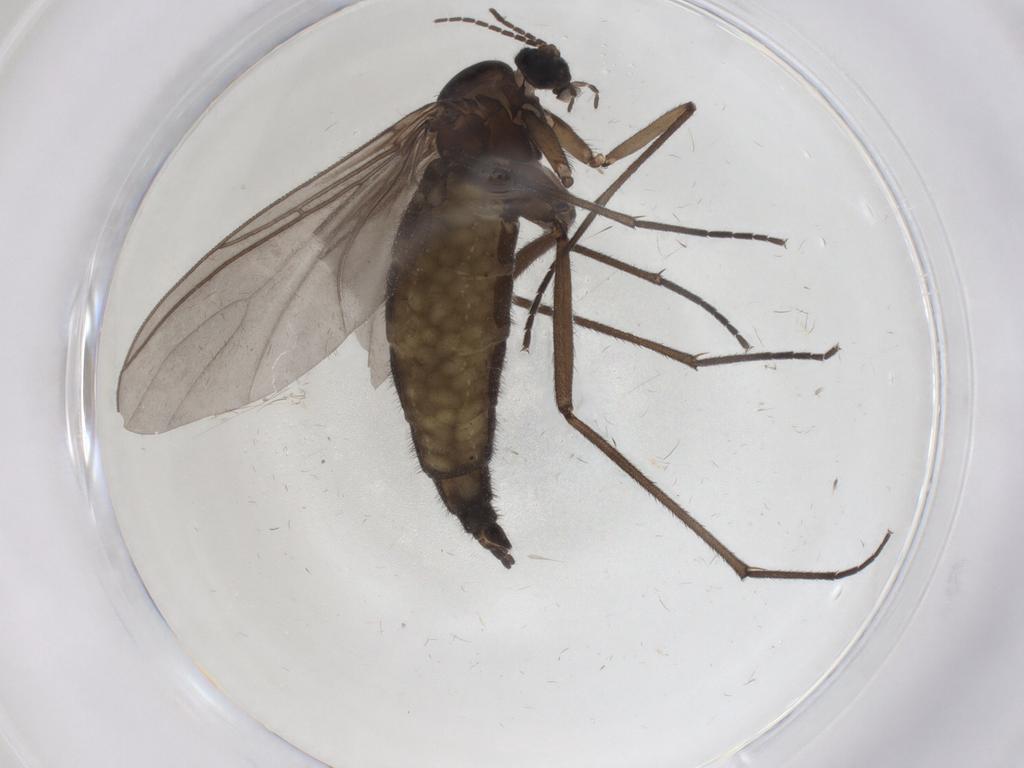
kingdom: Animalia
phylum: Arthropoda
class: Insecta
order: Diptera
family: Sciaridae
